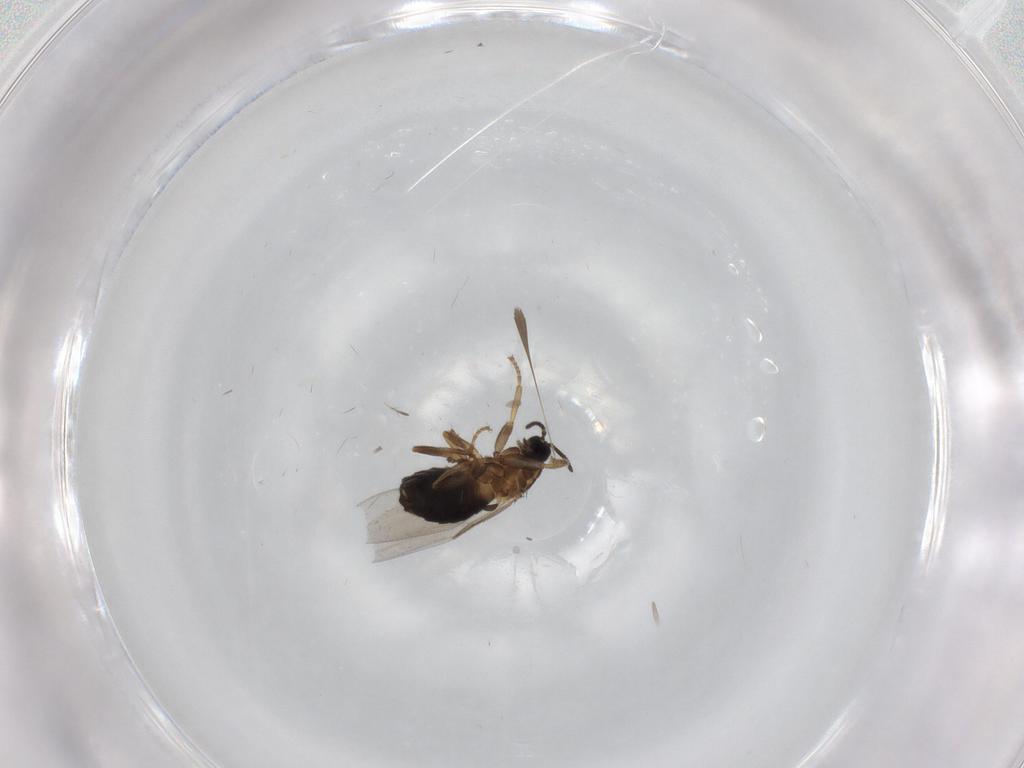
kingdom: Animalia
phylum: Arthropoda
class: Insecta
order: Diptera
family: Scatopsidae
